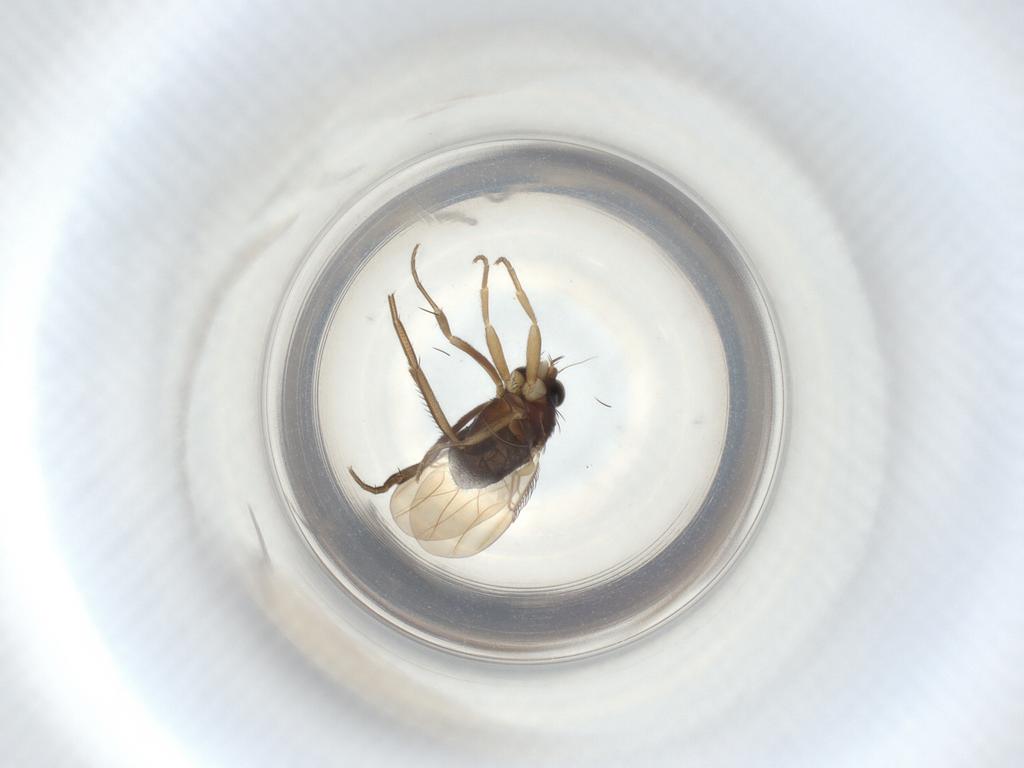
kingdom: Animalia
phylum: Arthropoda
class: Insecta
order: Diptera
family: Phoridae
